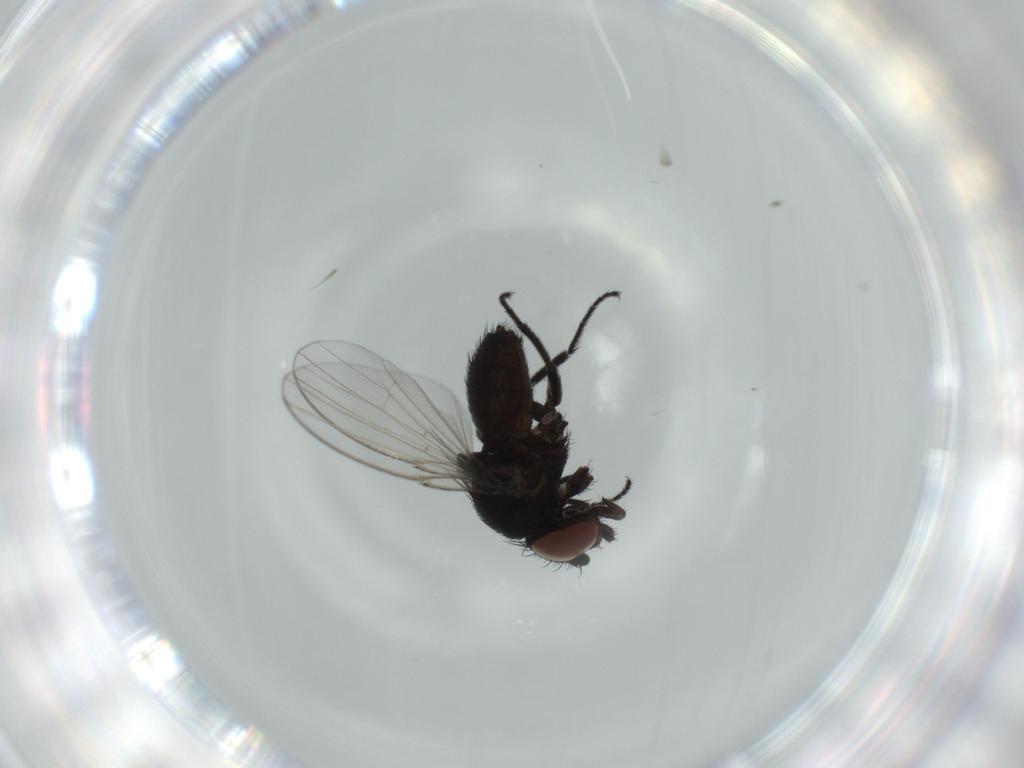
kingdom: Animalia
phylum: Arthropoda
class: Insecta
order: Diptera
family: Milichiidae
